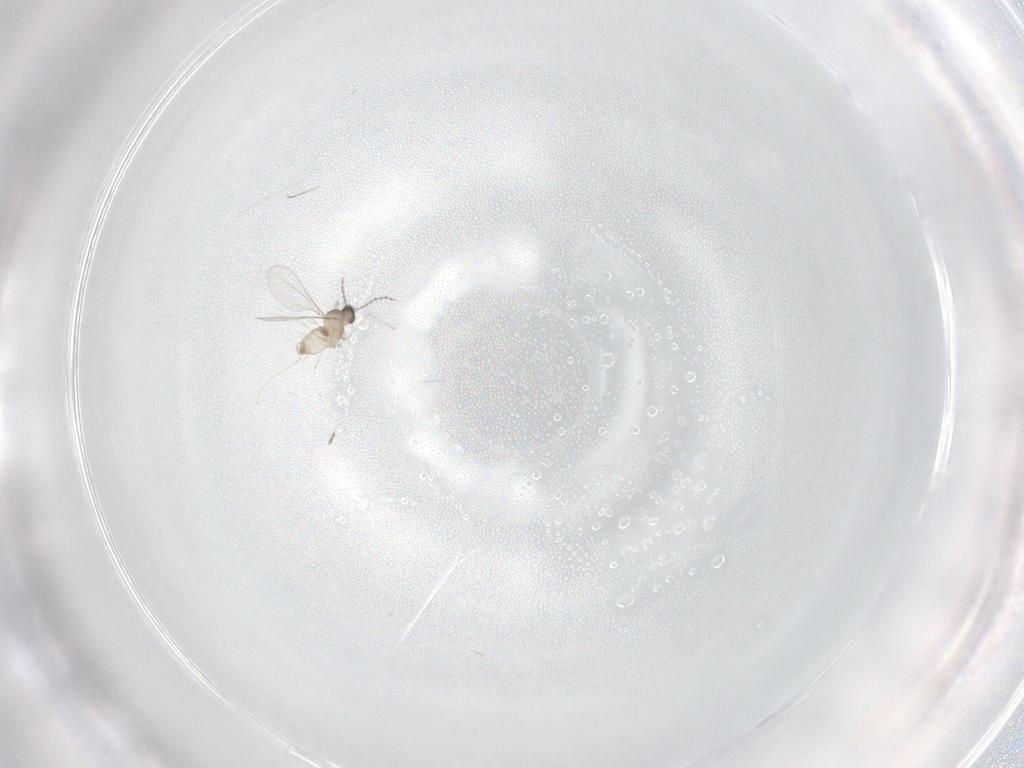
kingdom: Animalia
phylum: Arthropoda
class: Insecta
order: Diptera
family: Cecidomyiidae
